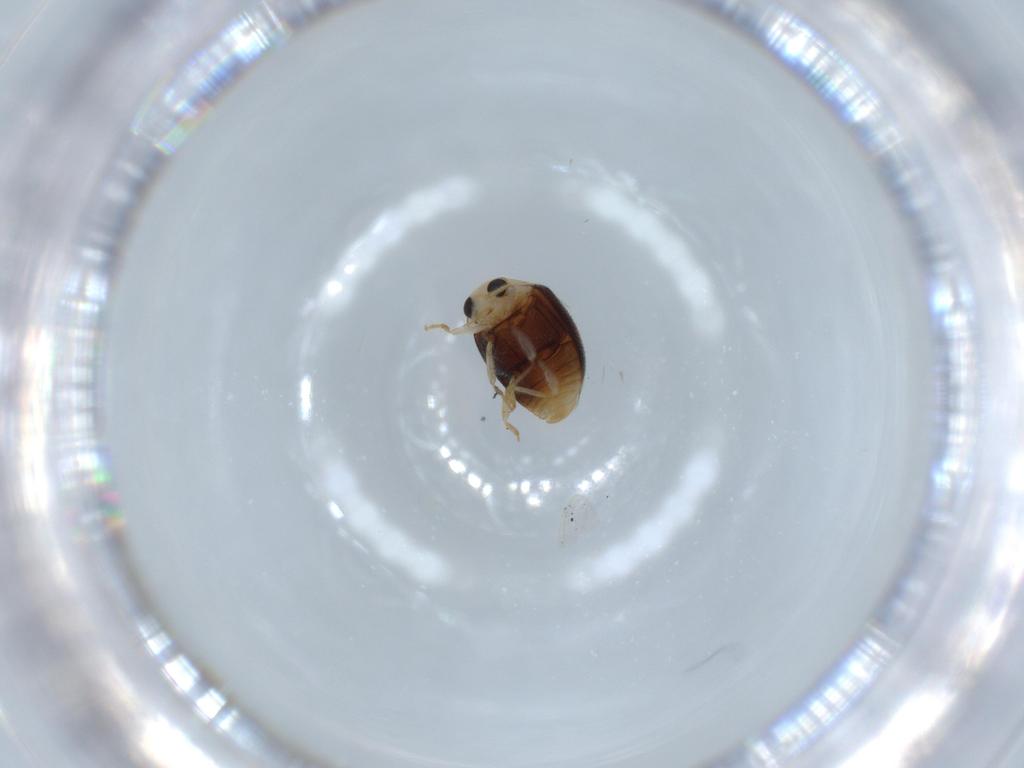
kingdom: Animalia
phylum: Arthropoda
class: Insecta
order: Coleoptera
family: Coccinellidae
